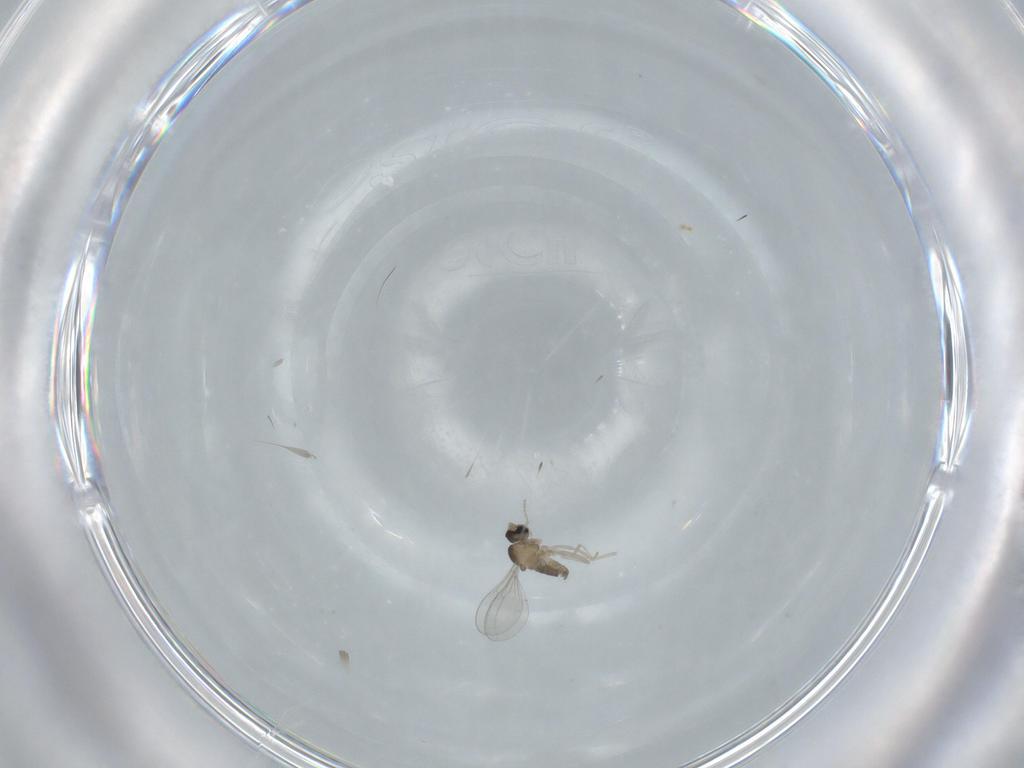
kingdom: Animalia
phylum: Arthropoda
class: Insecta
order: Diptera
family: Cecidomyiidae
